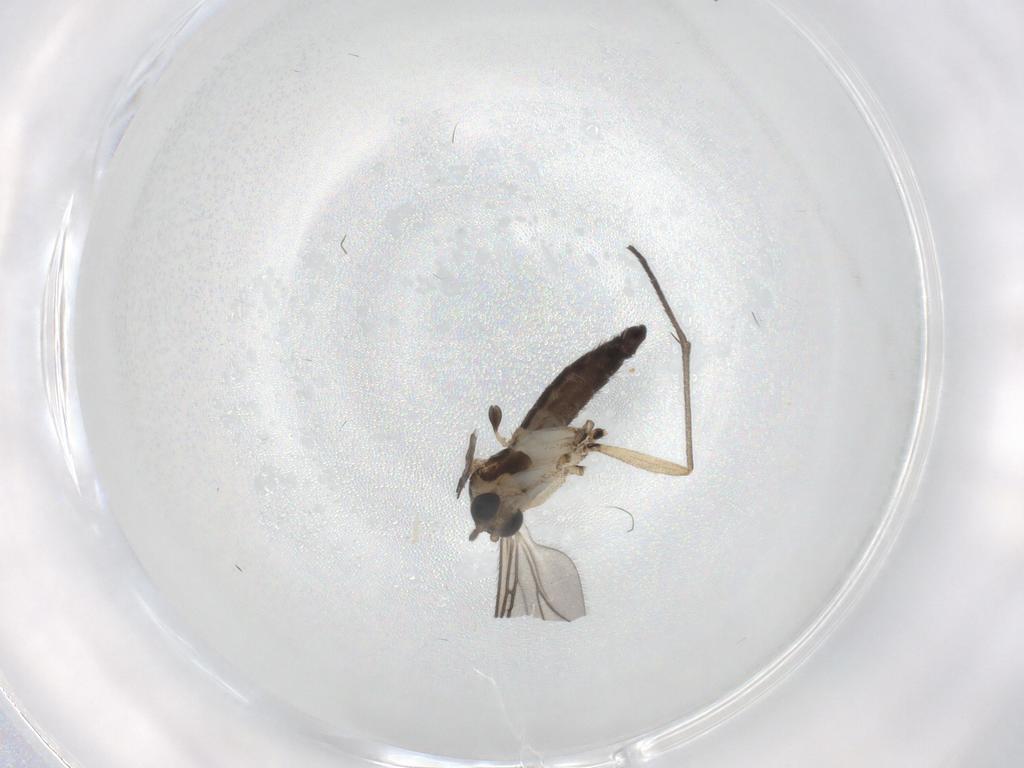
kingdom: Animalia
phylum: Arthropoda
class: Insecta
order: Diptera
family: Sciaridae
